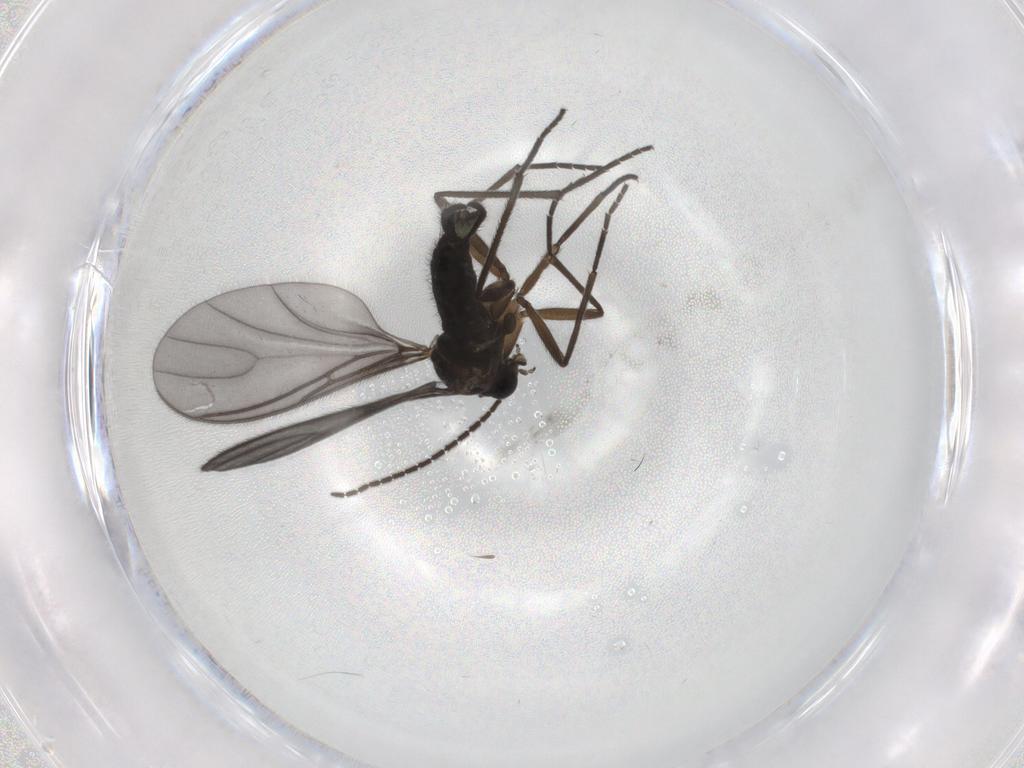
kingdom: Animalia
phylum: Arthropoda
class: Insecta
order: Diptera
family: Sciaridae
